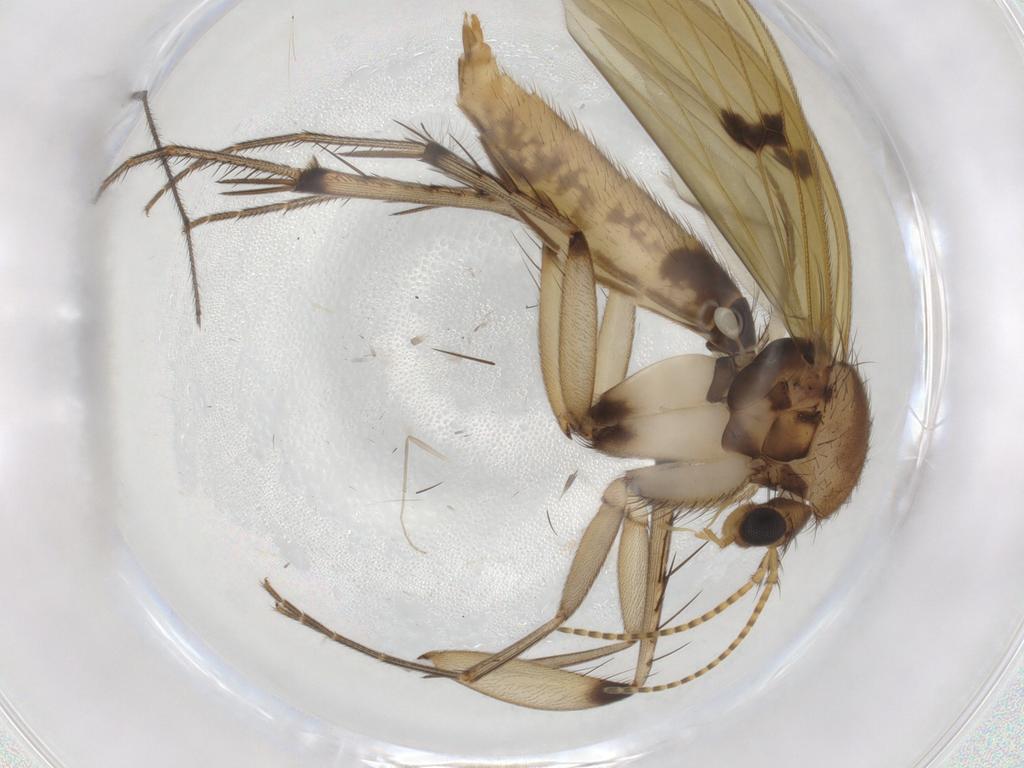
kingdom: Animalia
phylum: Arthropoda
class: Insecta
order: Diptera
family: Mycetophilidae
